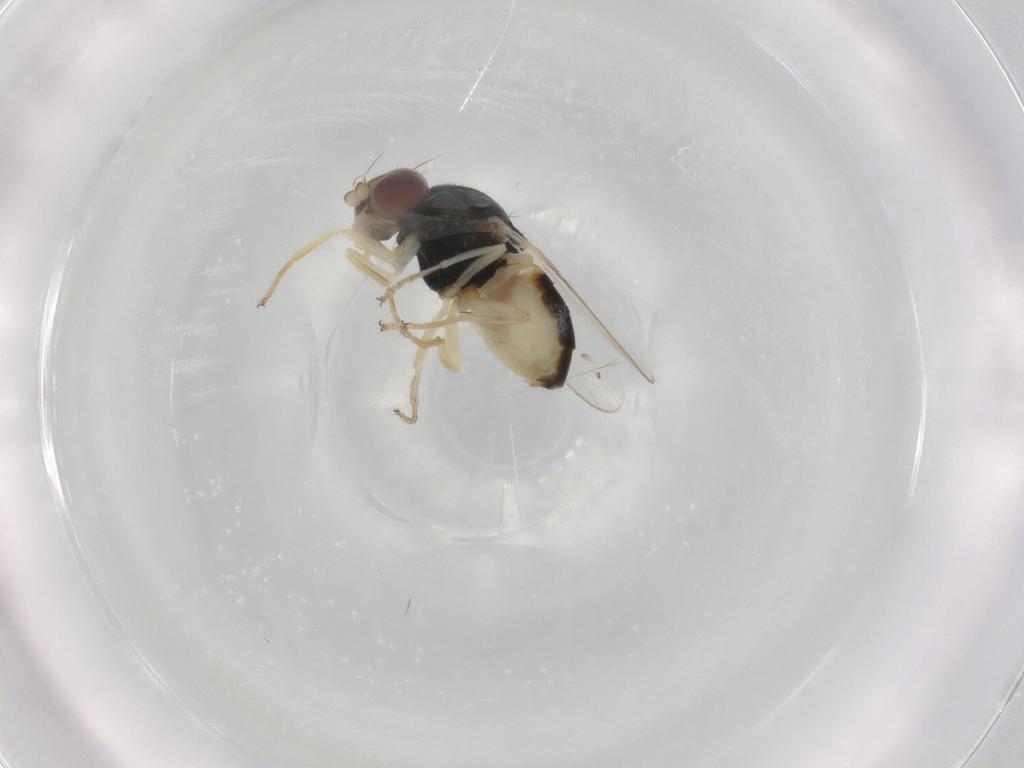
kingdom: Animalia
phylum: Arthropoda
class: Insecta
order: Diptera
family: Chloropidae
